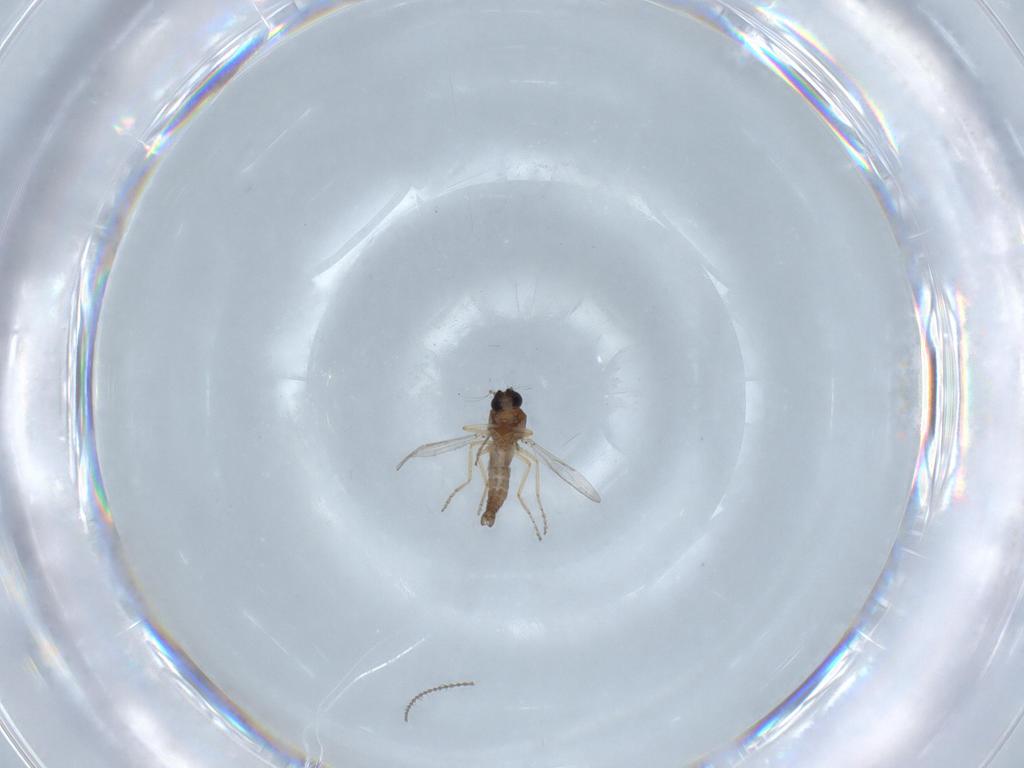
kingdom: Animalia
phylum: Arthropoda
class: Insecta
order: Diptera
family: Cecidomyiidae
